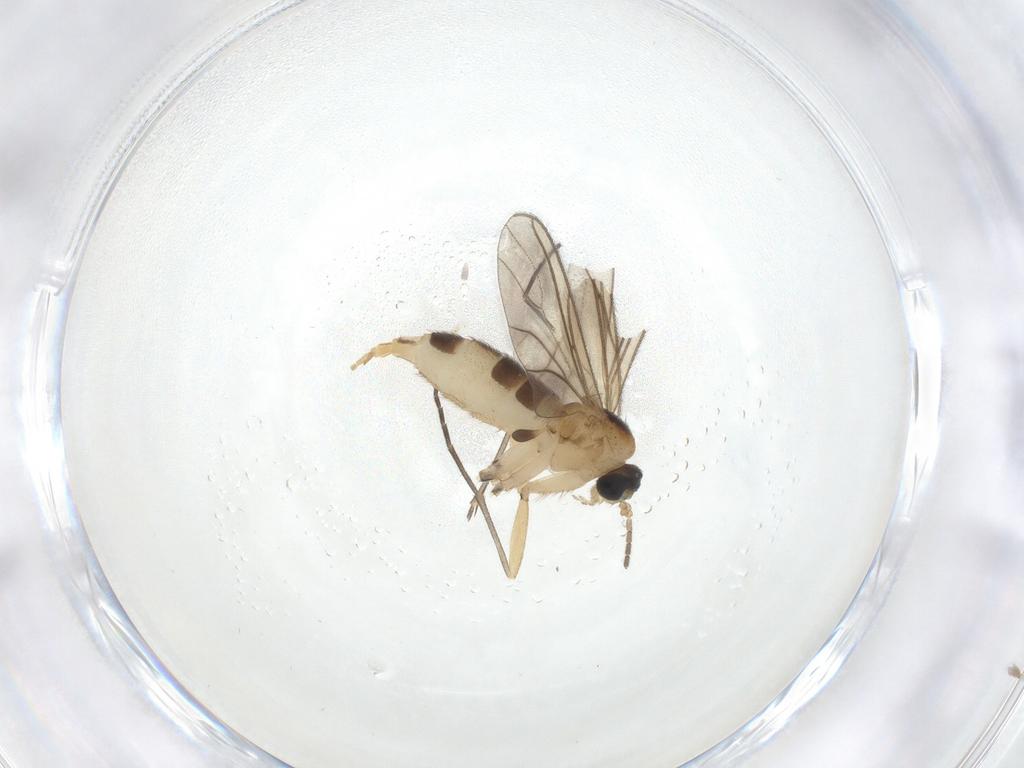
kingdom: Animalia
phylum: Arthropoda
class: Insecta
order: Diptera
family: Sciaridae
